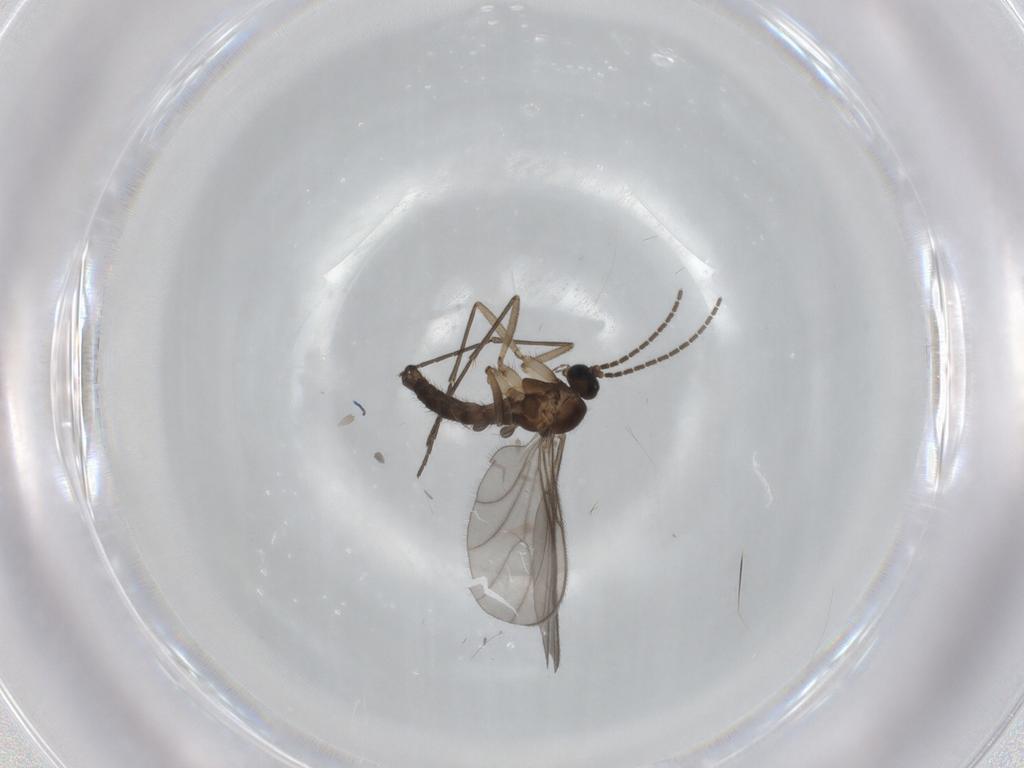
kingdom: Animalia
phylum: Arthropoda
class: Insecta
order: Diptera
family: Sciaridae
